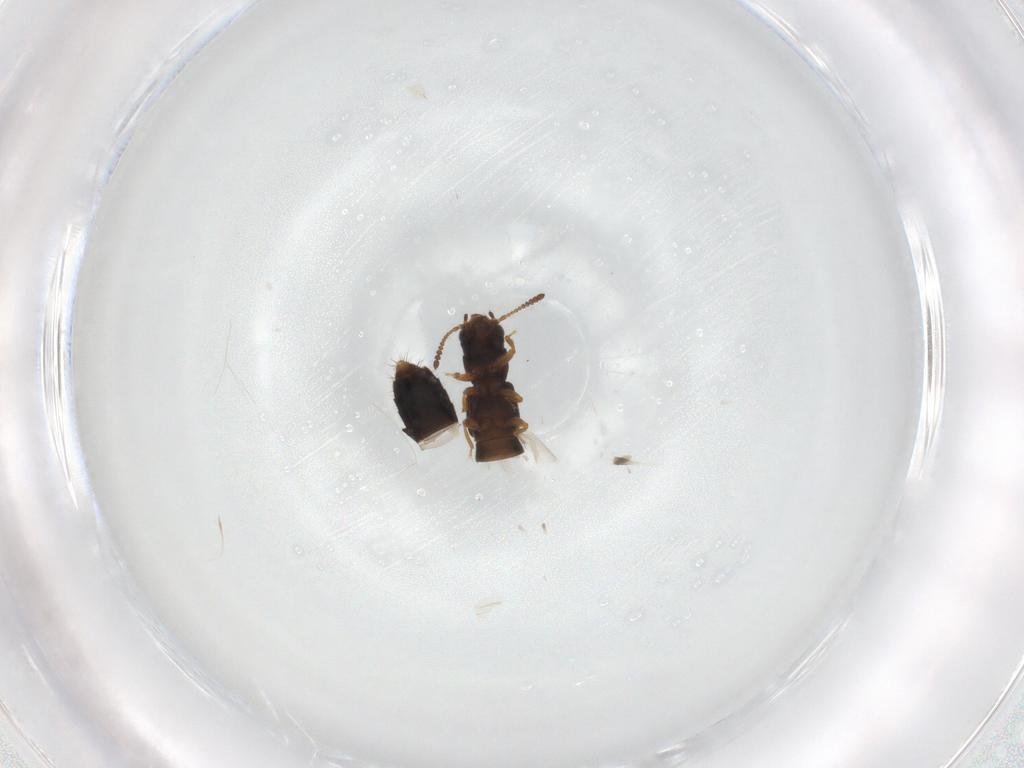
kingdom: Animalia
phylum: Arthropoda
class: Insecta
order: Coleoptera
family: Staphylinidae
